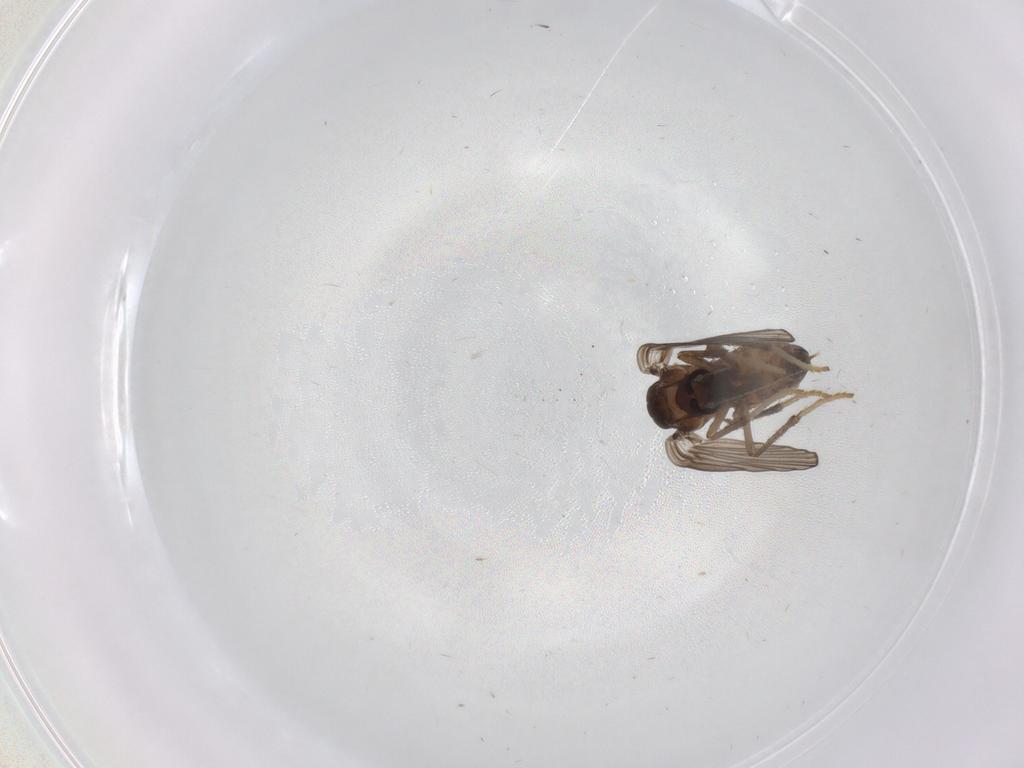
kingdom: Animalia
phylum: Arthropoda
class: Insecta
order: Diptera
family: Psychodidae
